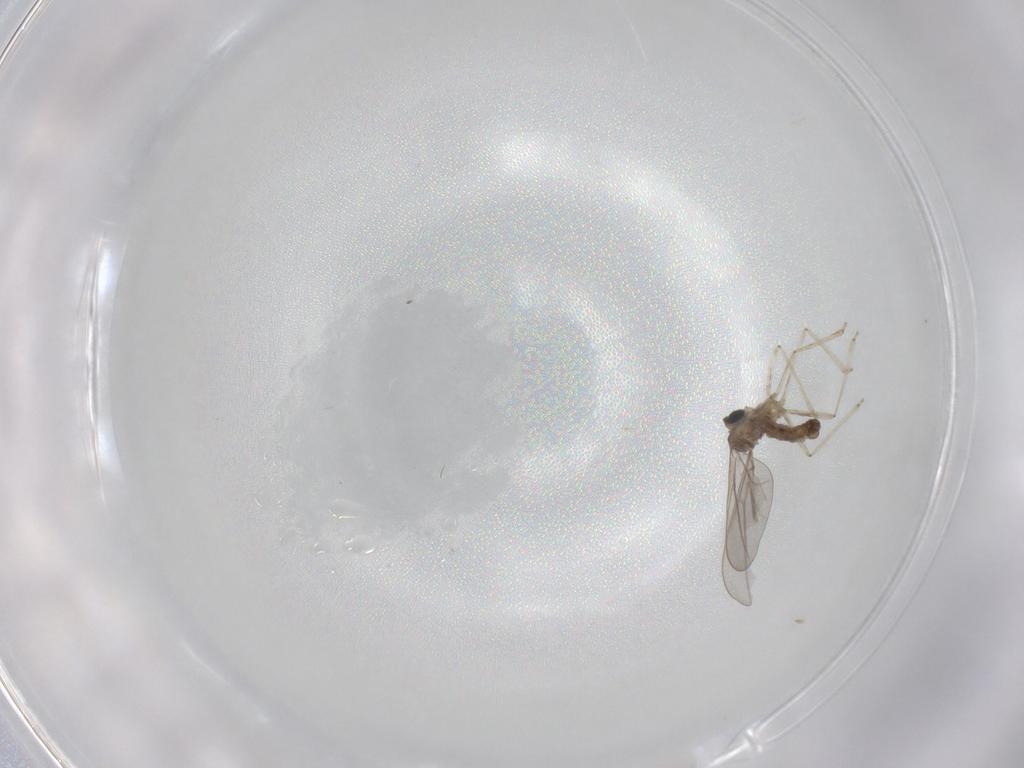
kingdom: Animalia
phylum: Arthropoda
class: Insecta
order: Diptera
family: Cecidomyiidae
